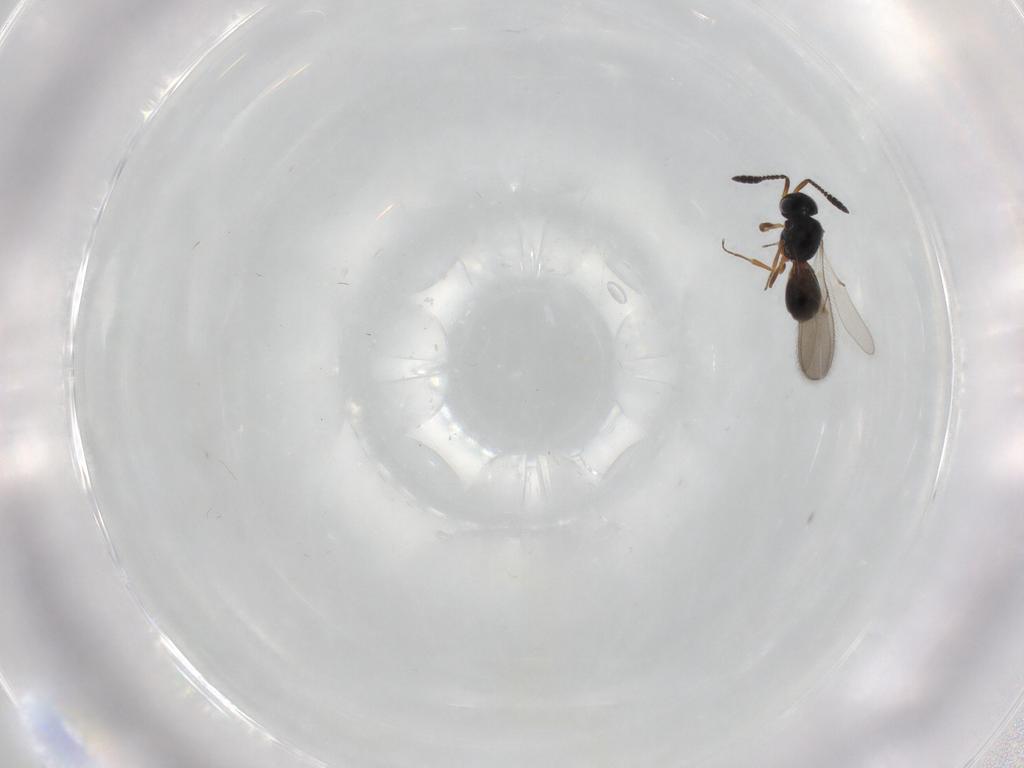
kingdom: Animalia
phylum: Arthropoda
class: Insecta
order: Hymenoptera
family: Scelionidae
